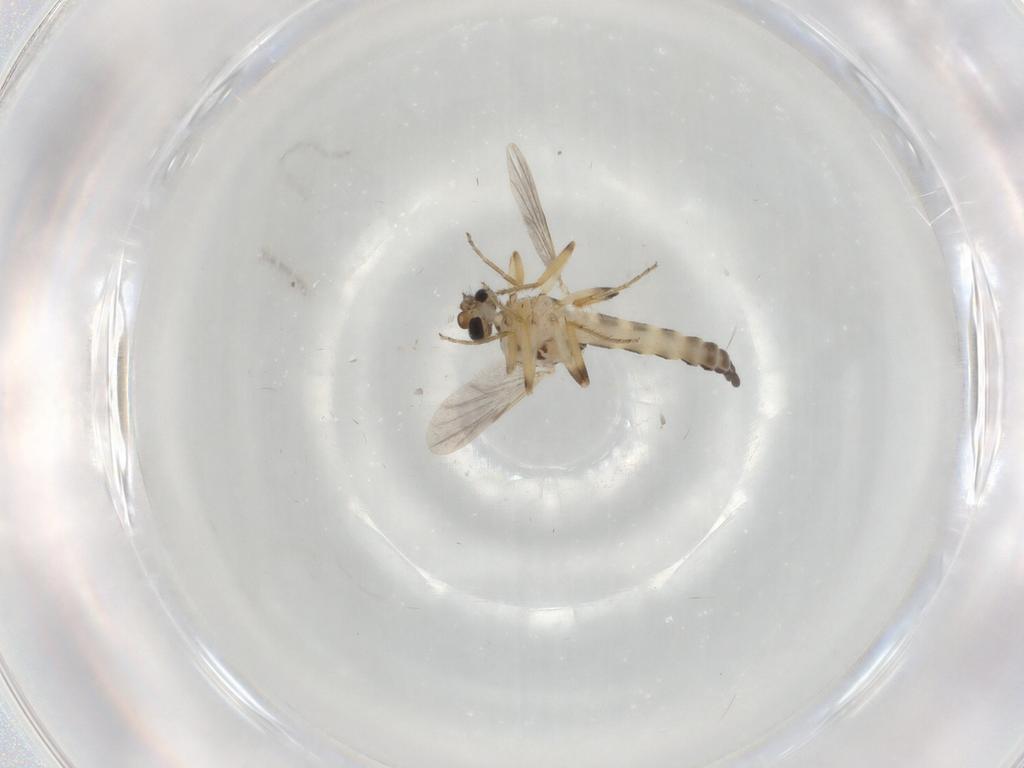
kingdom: Animalia
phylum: Arthropoda
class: Insecta
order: Diptera
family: Ceratopogonidae
